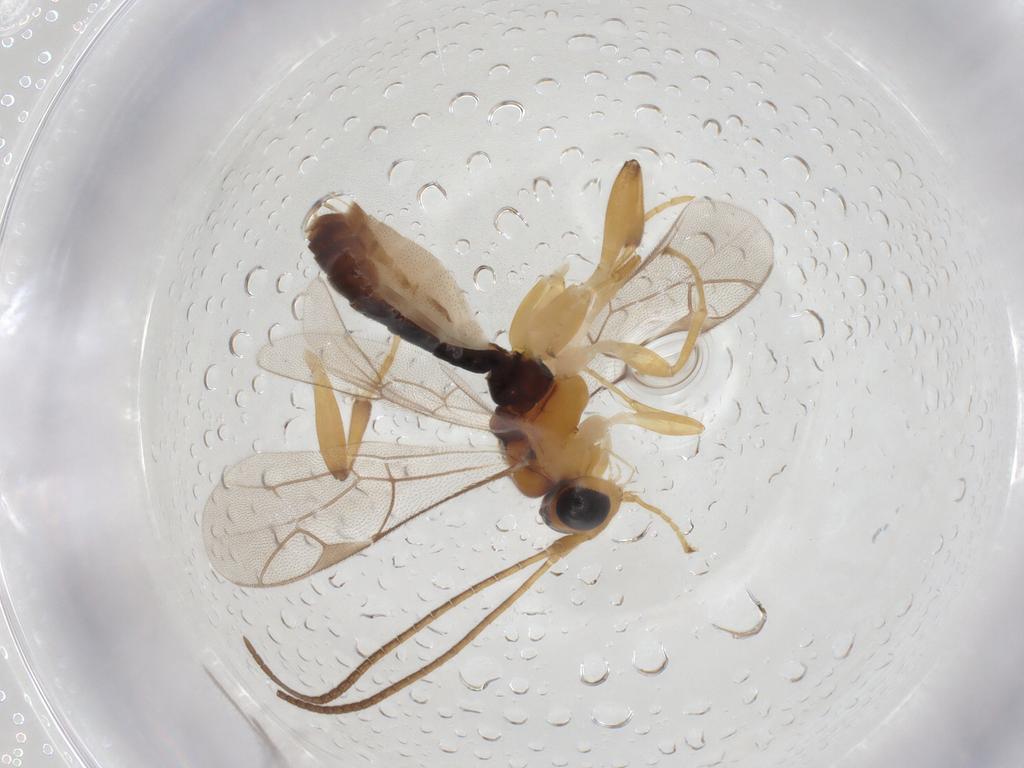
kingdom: Animalia
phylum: Arthropoda
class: Insecta
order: Hymenoptera
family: Ichneumonidae
